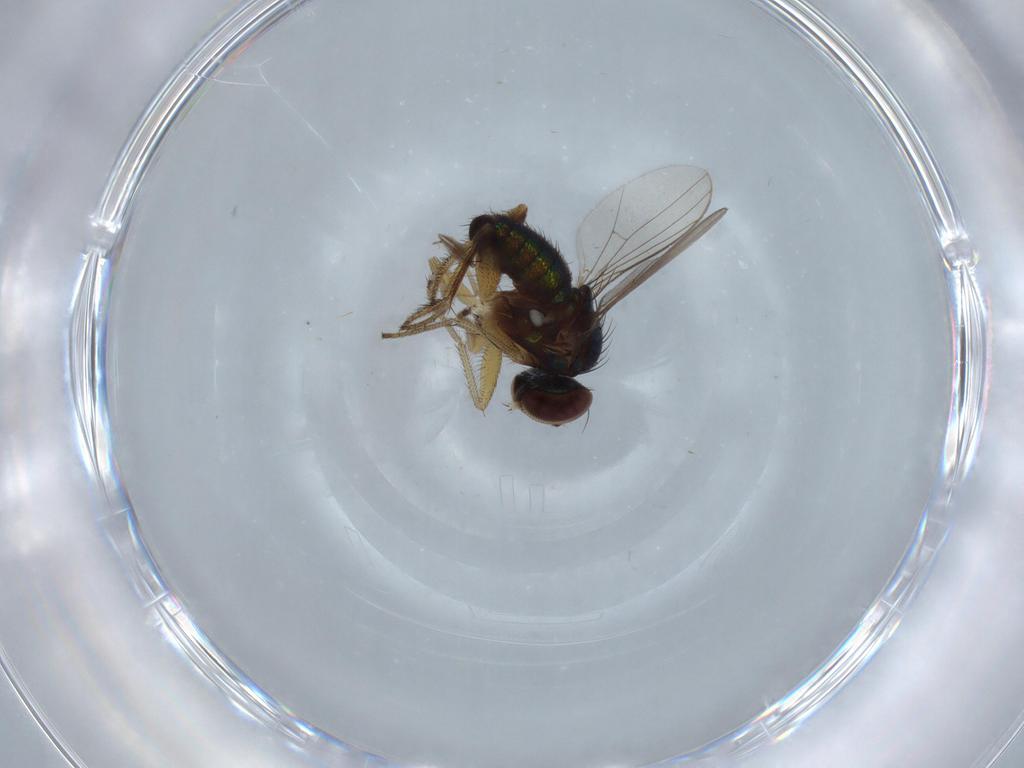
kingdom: Animalia
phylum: Arthropoda
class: Insecta
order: Diptera
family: Ceratopogonidae
